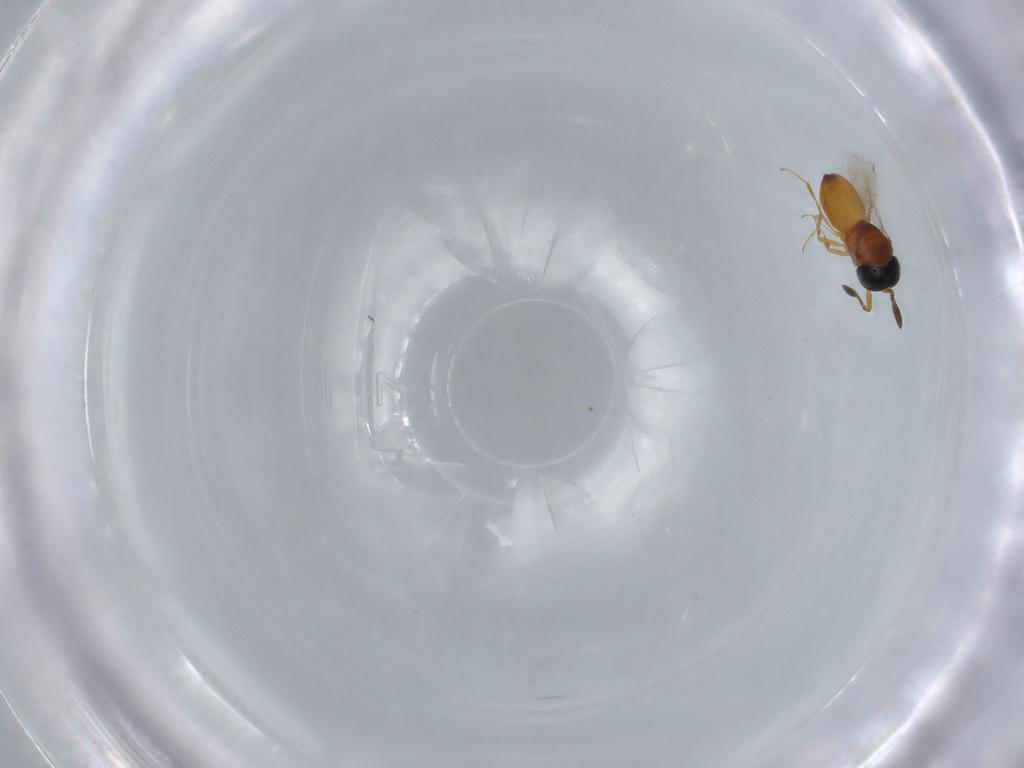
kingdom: Animalia
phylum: Arthropoda
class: Insecta
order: Hymenoptera
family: Scelionidae
